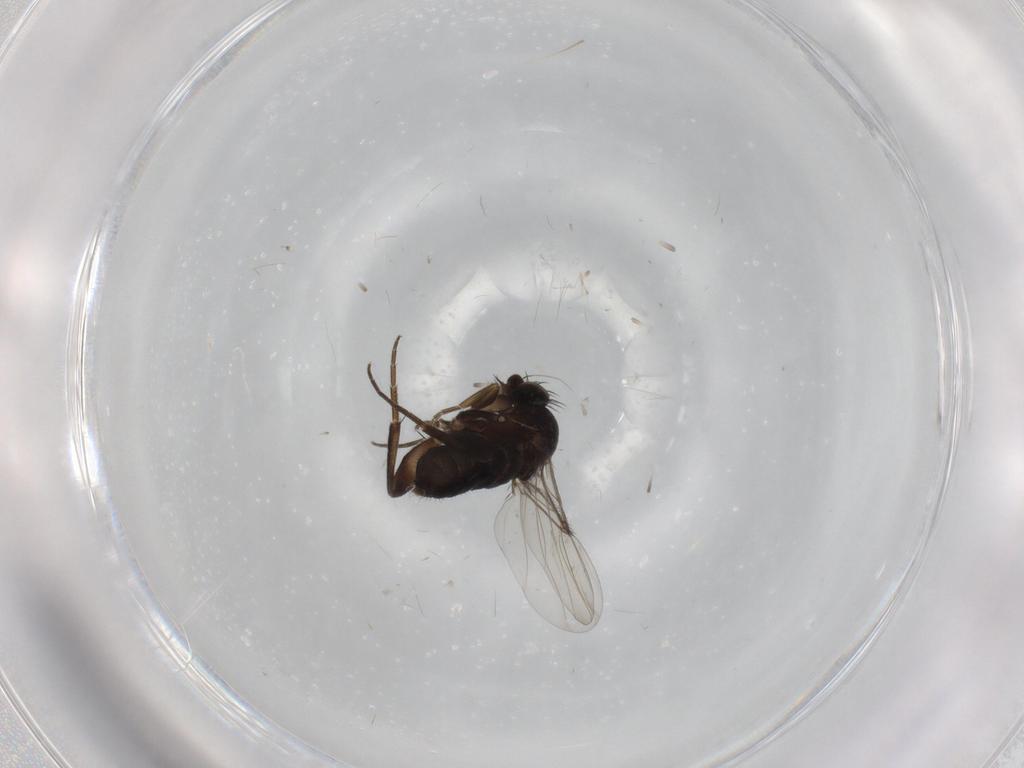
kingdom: Animalia
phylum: Arthropoda
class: Insecta
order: Diptera
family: Phoridae
